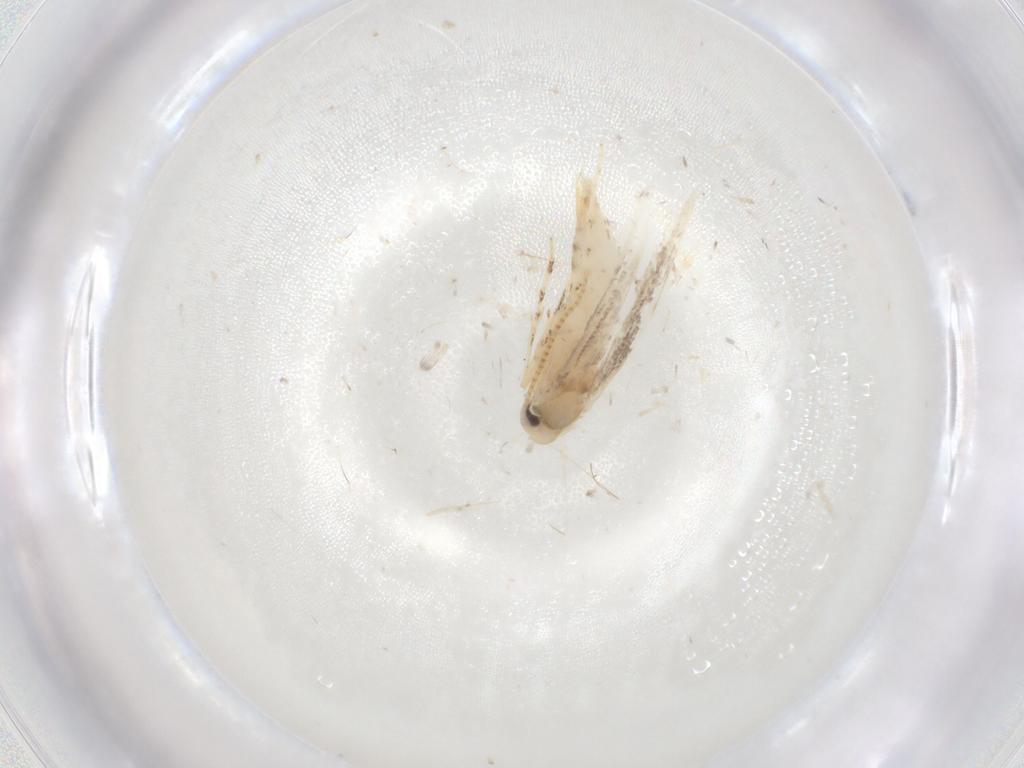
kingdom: Animalia
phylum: Arthropoda
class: Insecta
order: Lepidoptera
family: Gracillariidae
